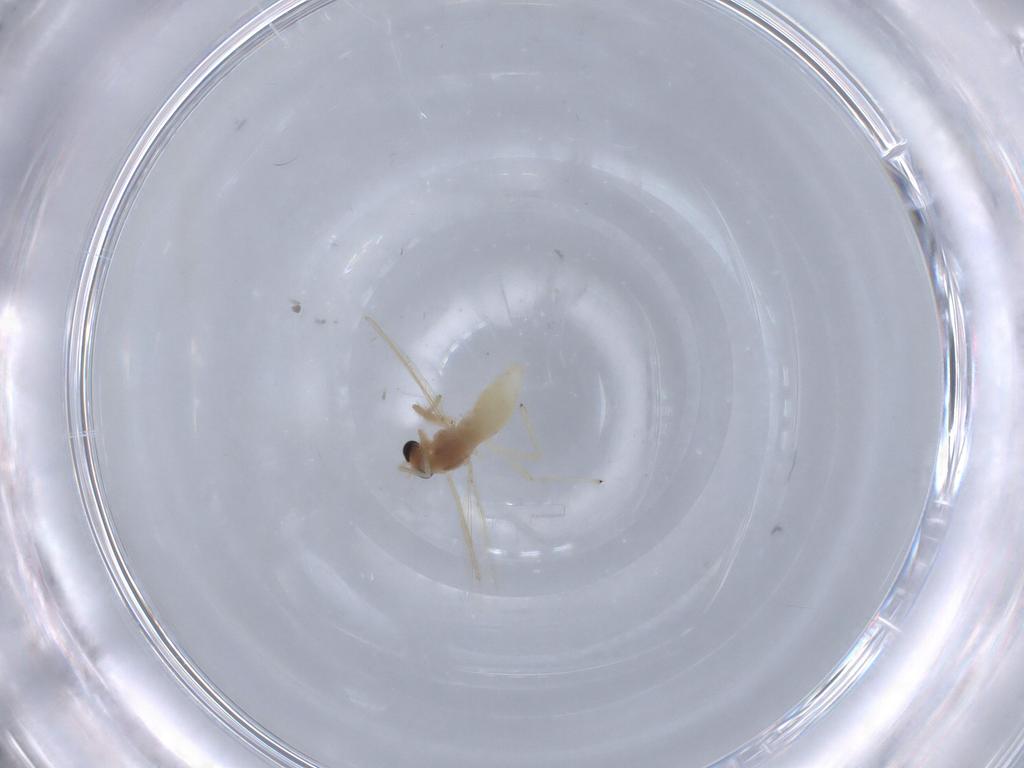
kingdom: Animalia
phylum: Arthropoda
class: Insecta
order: Diptera
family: Chironomidae
